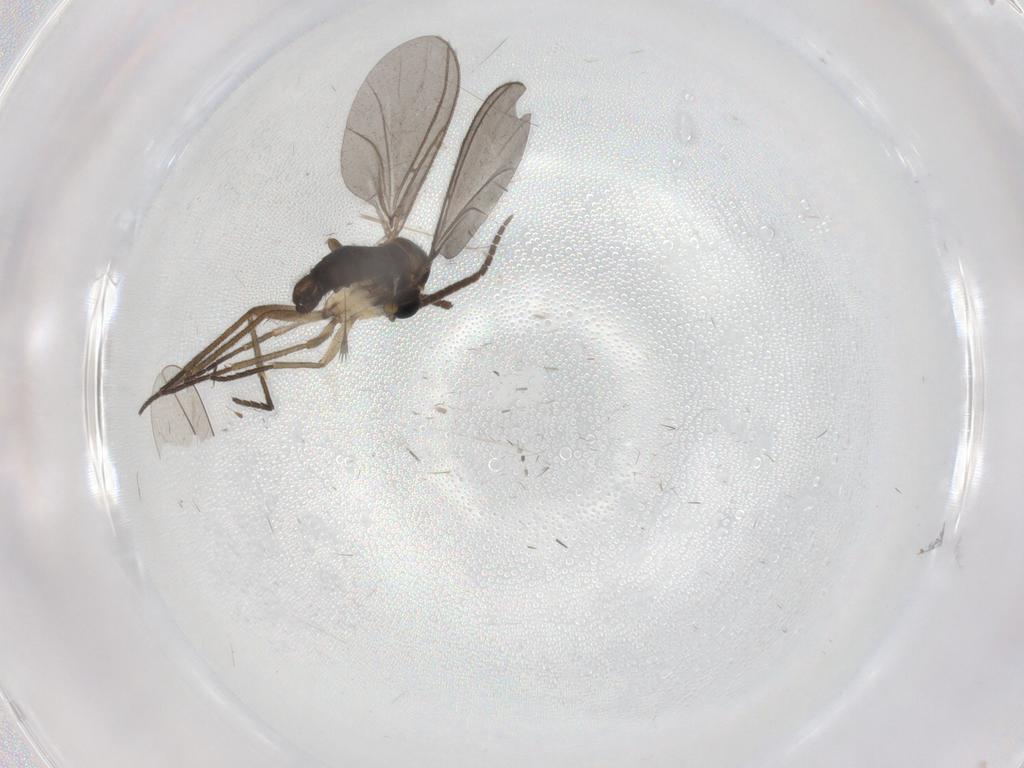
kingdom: Animalia
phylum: Arthropoda
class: Insecta
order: Diptera
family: Sciaridae
